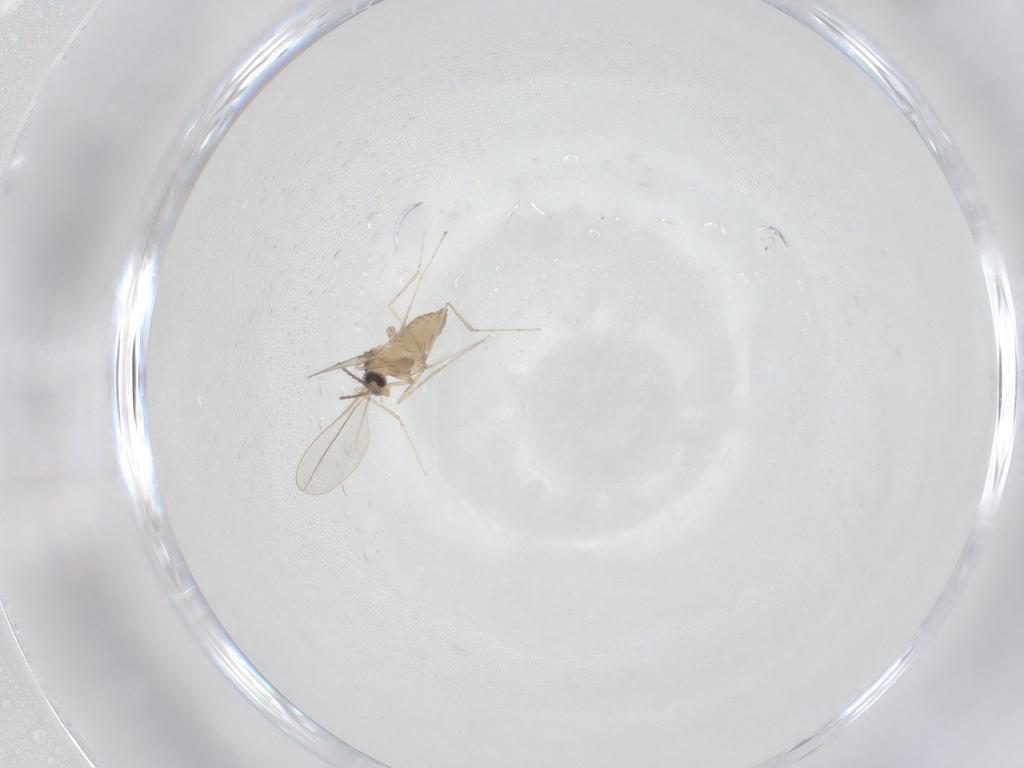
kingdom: Animalia
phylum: Arthropoda
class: Insecta
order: Diptera
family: Cecidomyiidae
